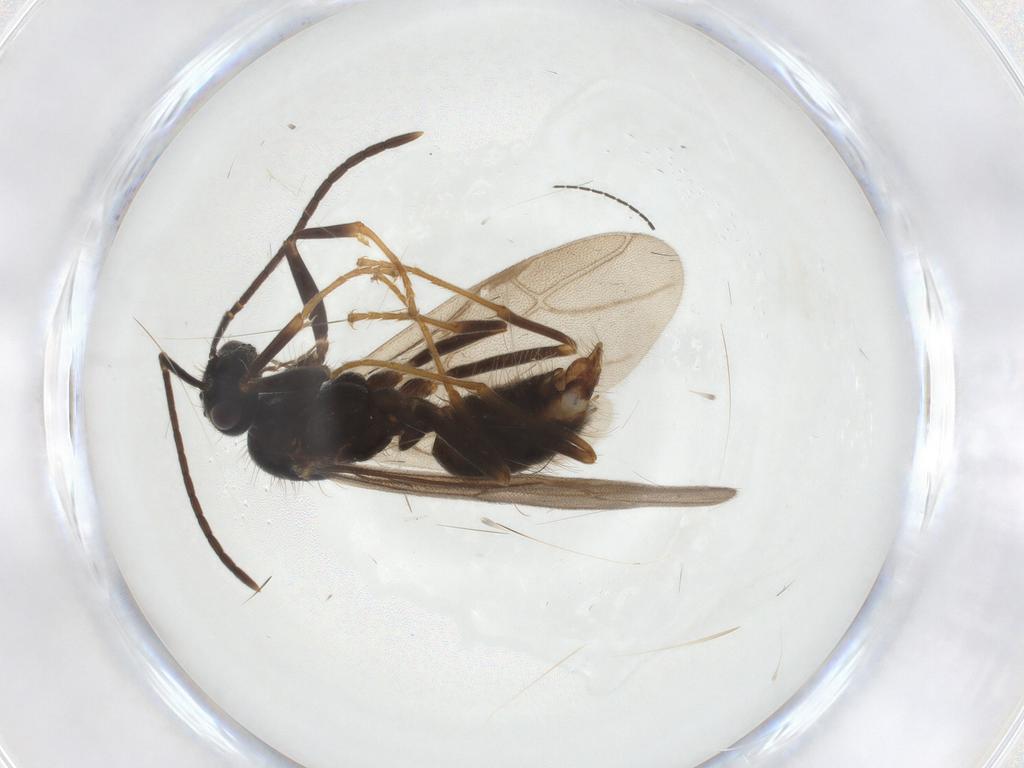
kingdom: Animalia
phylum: Arthropoda
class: Insecta
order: Hymenoptera
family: Formicidae
